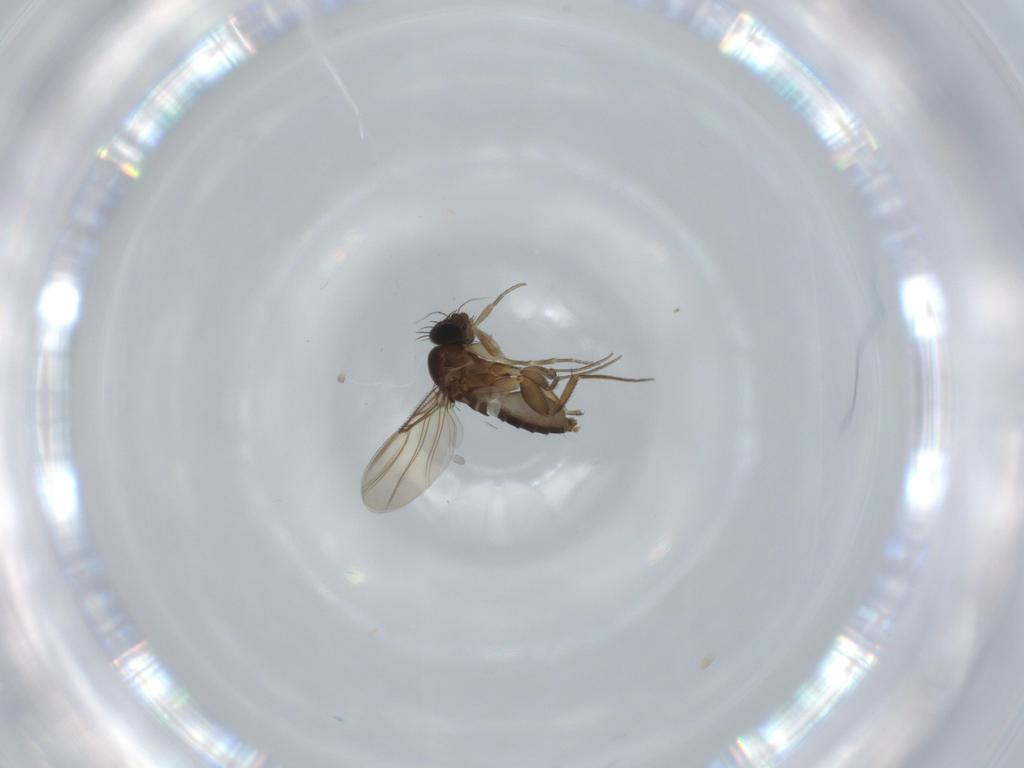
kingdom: Animalia
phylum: Arthropoda
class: Insecta
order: Diptera
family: Phoridae
